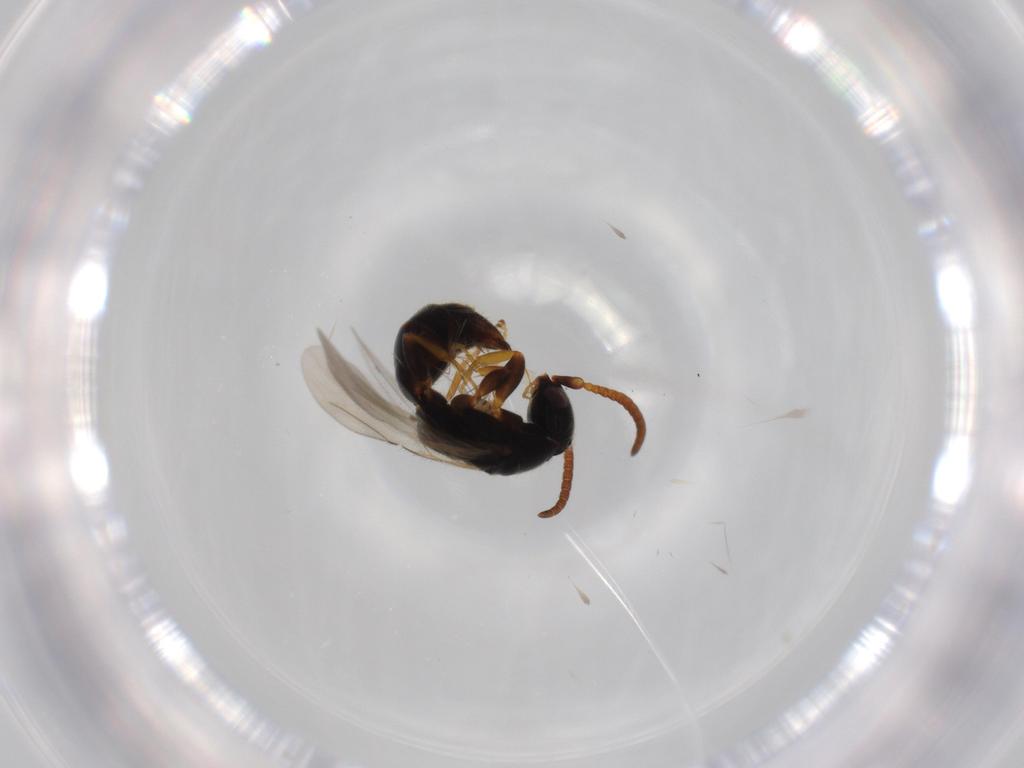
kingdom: Animalia
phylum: Arthropoda
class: Insecta
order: Hymenoptera
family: Bethylidae
